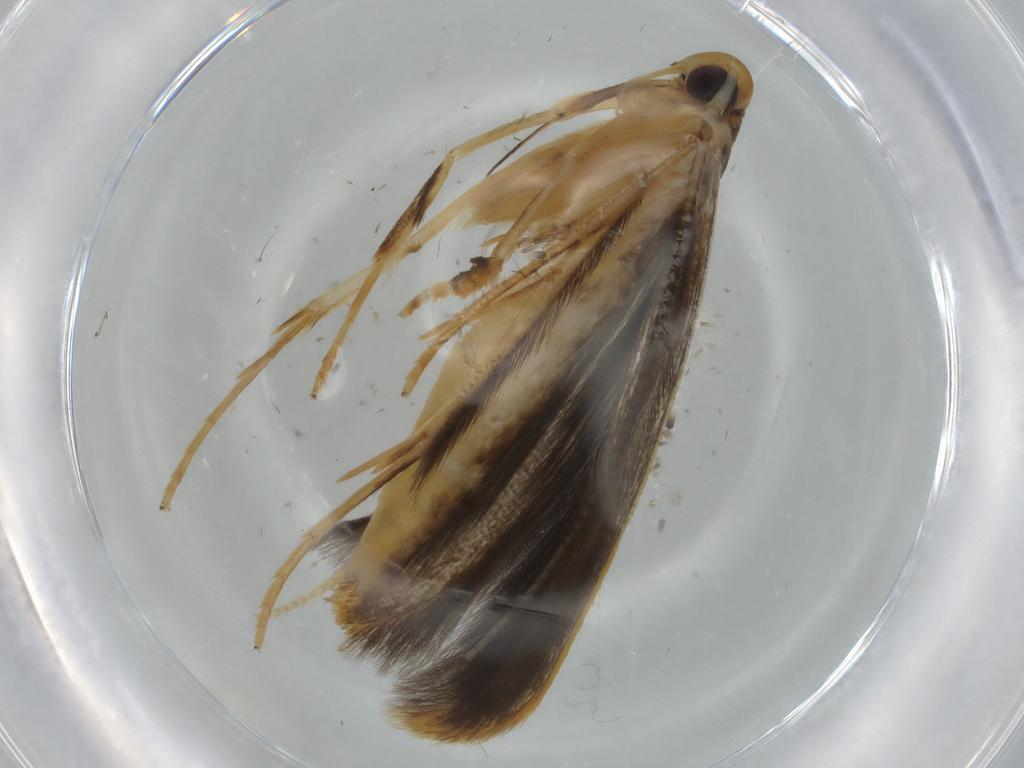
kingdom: Animalia
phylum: Arthropoda
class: Insecta
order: Lepidoptera
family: Pterolonchidae
